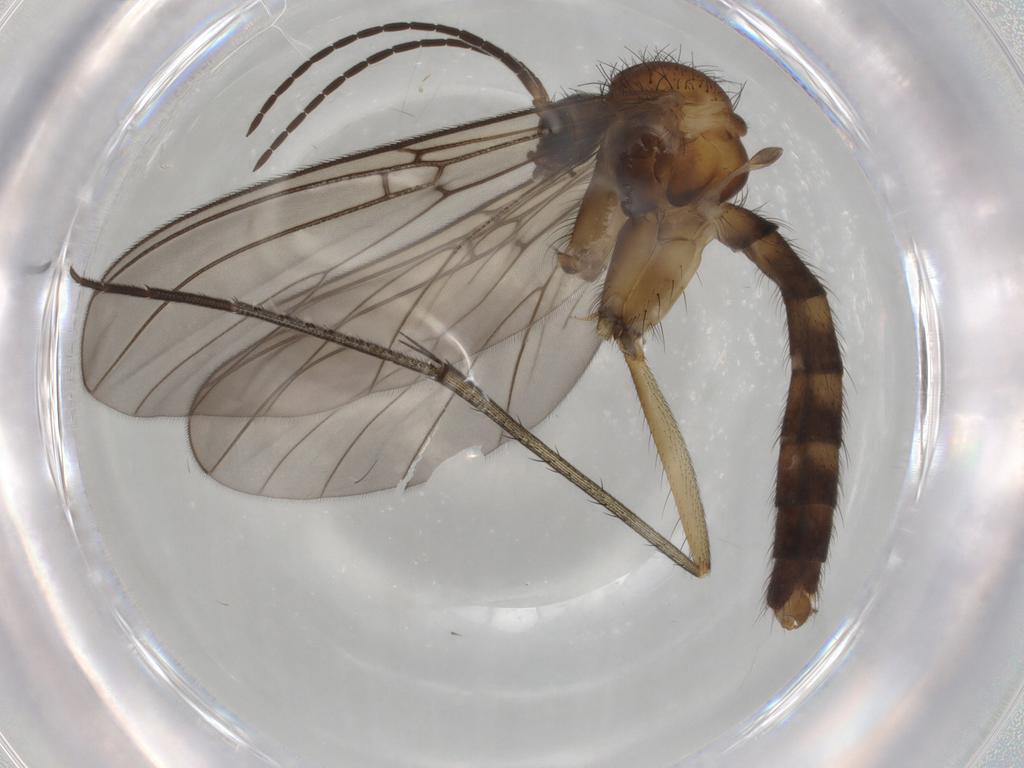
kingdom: Animalia
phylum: Arthropoda
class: Insecta
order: Diptera
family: Mycetophilidae
